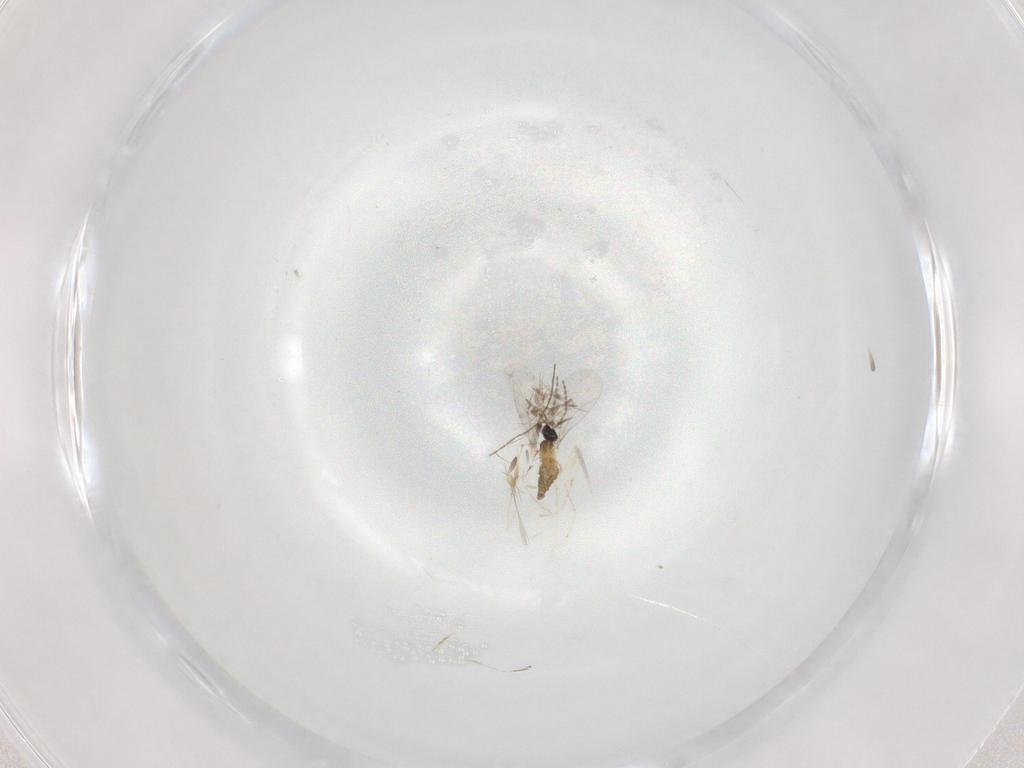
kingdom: Animalia
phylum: Arthropoda
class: Insecta
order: Diptera
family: Cecidomyiidae
